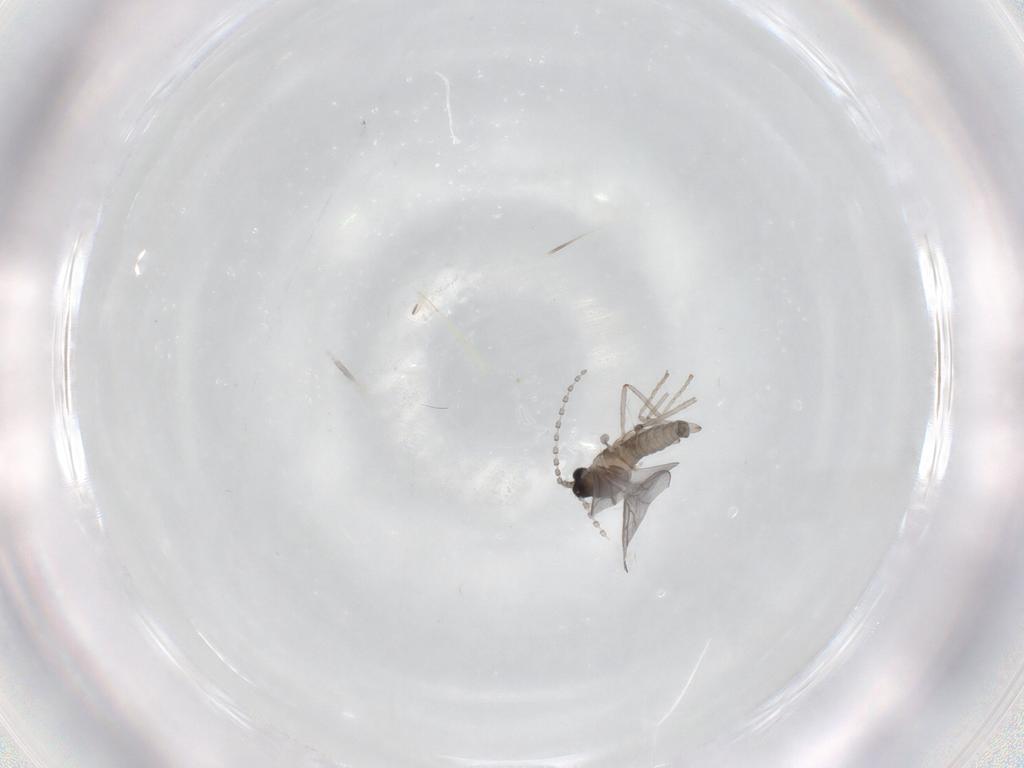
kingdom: Animalia
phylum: Arthropoda
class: Insecta
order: Diptera
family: Cecidomyiidae
